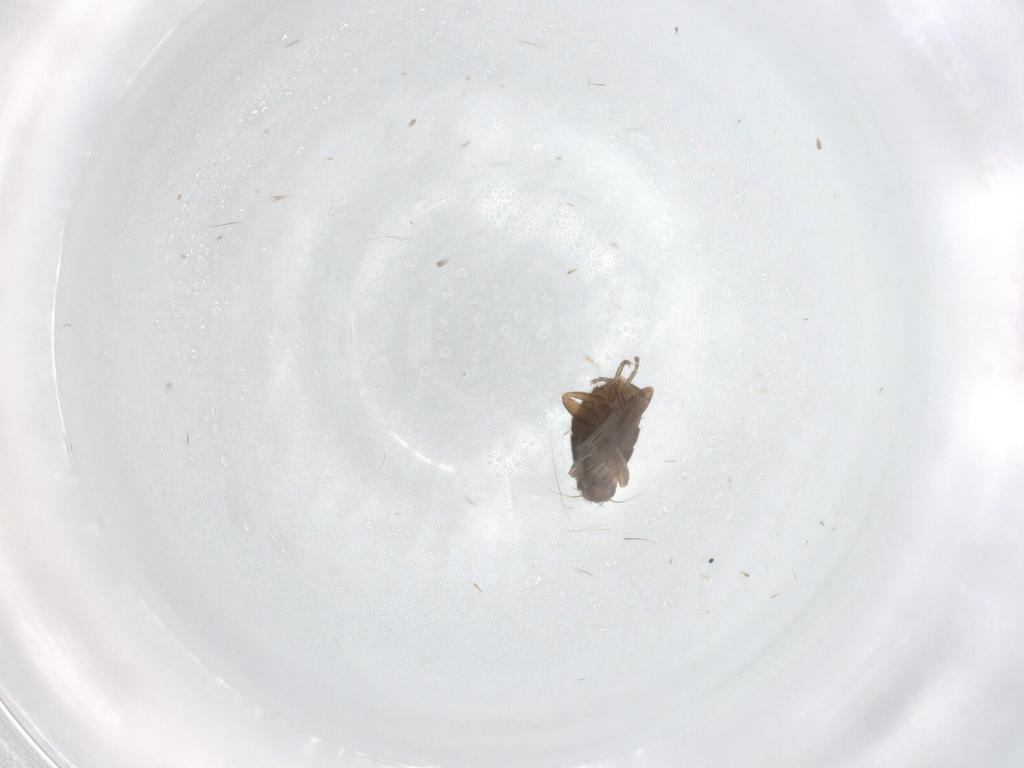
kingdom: Animalia
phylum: Arthropoda
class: Insecta
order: Diptera
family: Phoridae
